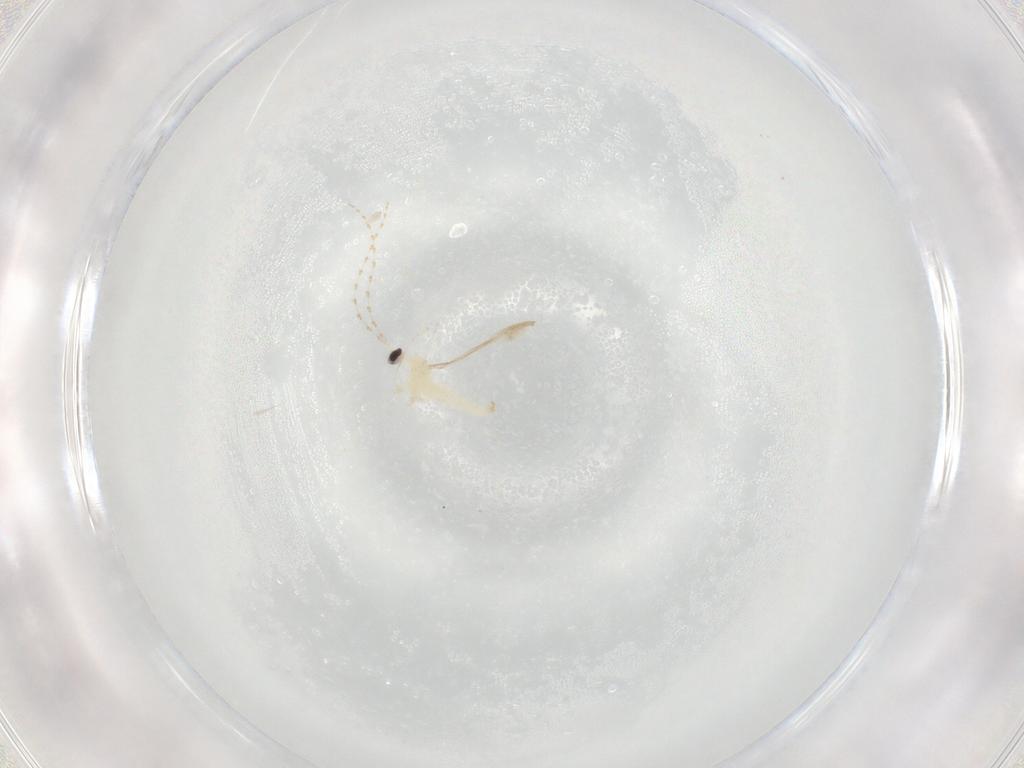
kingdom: Animalia
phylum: Arthropoda
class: Insecta
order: Diptera
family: Cecidomyiidae
